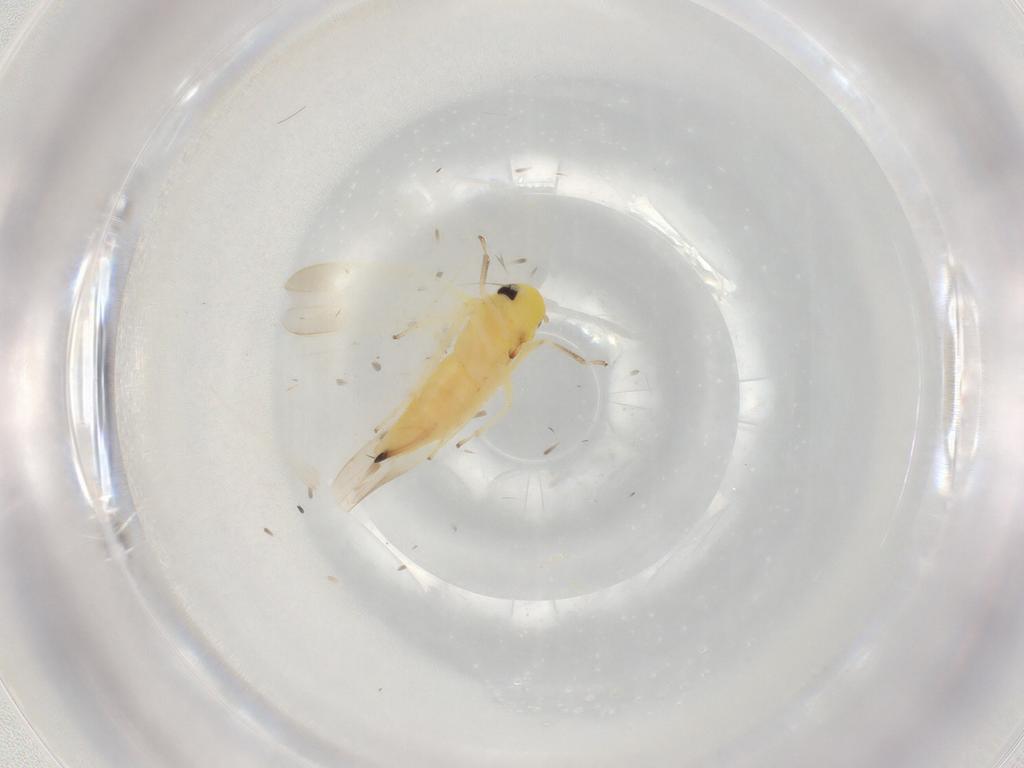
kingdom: Animalia
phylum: Arthropoda
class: Insecta
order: Hemiptera
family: Cicadellidae
